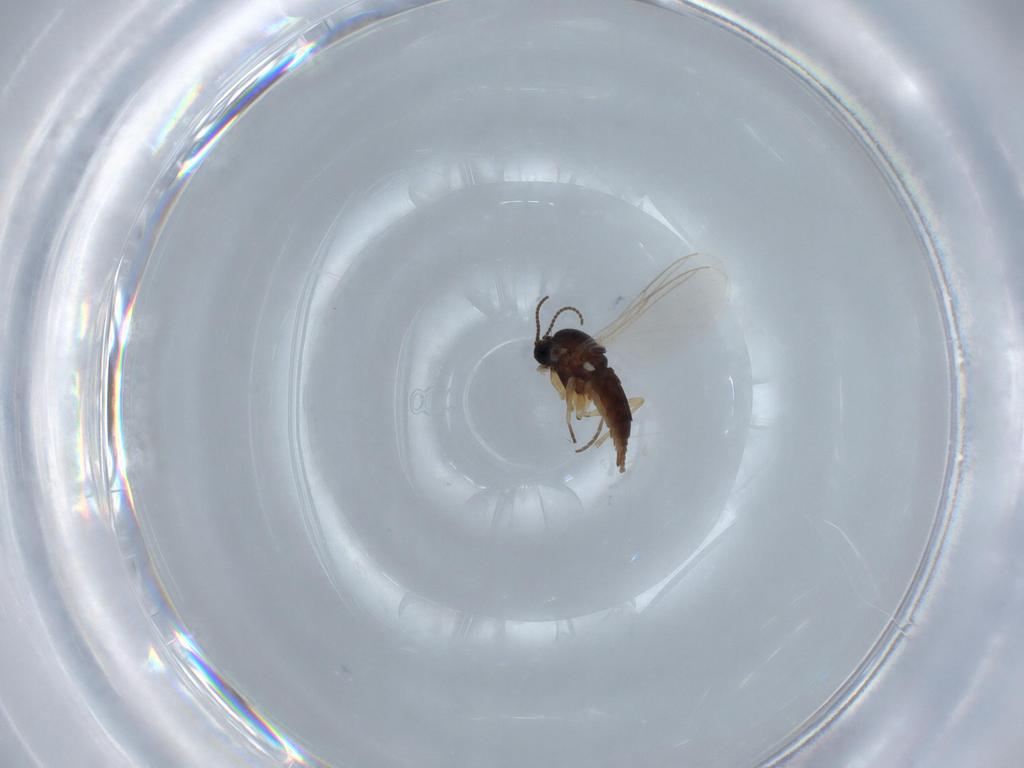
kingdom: Animalia
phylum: Arthropoda
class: Insecta
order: Diptera
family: Sciaridae
